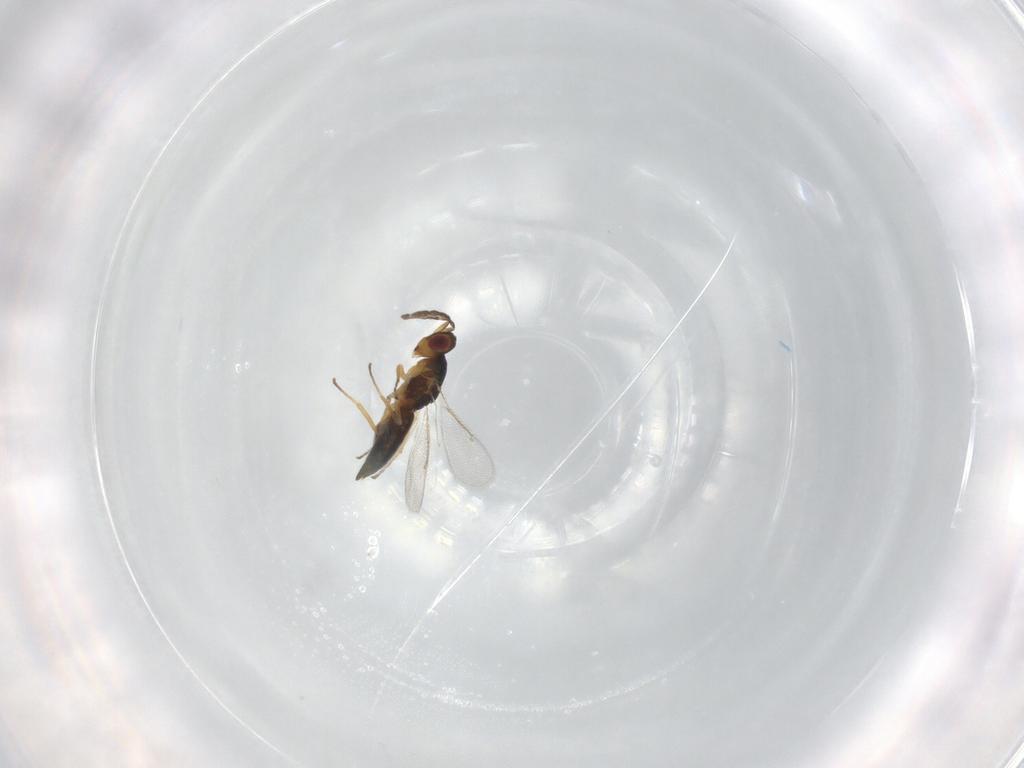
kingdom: Animalia
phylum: Arthropoda
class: Insecta
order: Hymenoptera
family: Eulophidae
